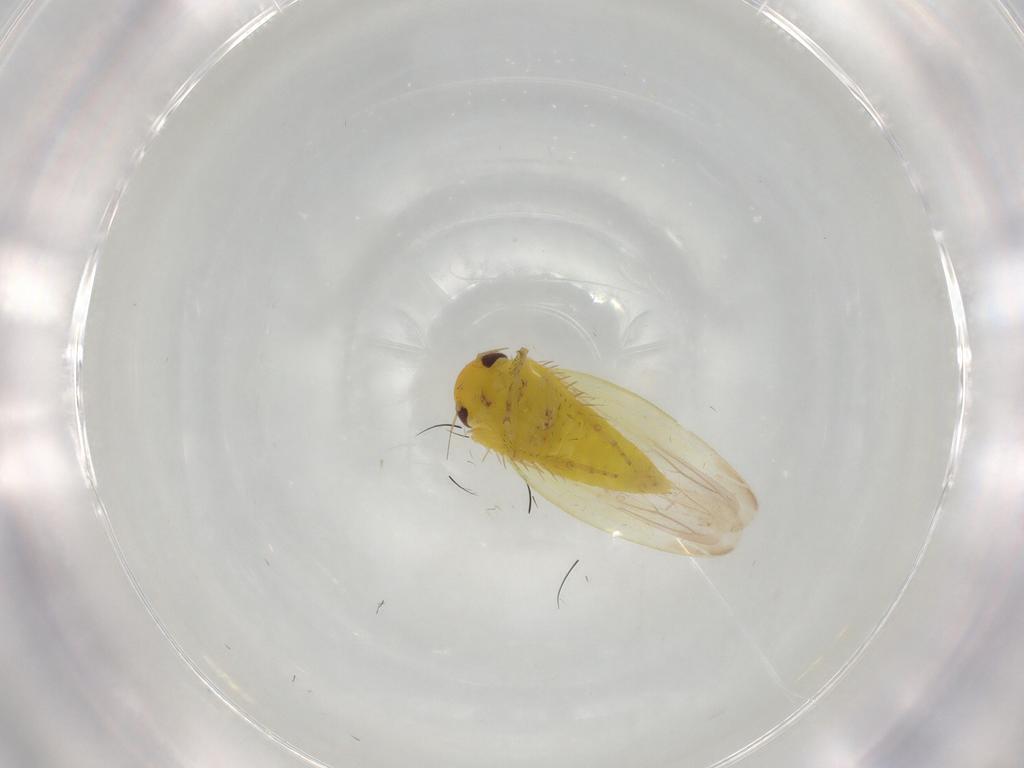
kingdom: Animalia
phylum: Arthropoda
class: Insecta
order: Hemiptera
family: Cicadellidae
